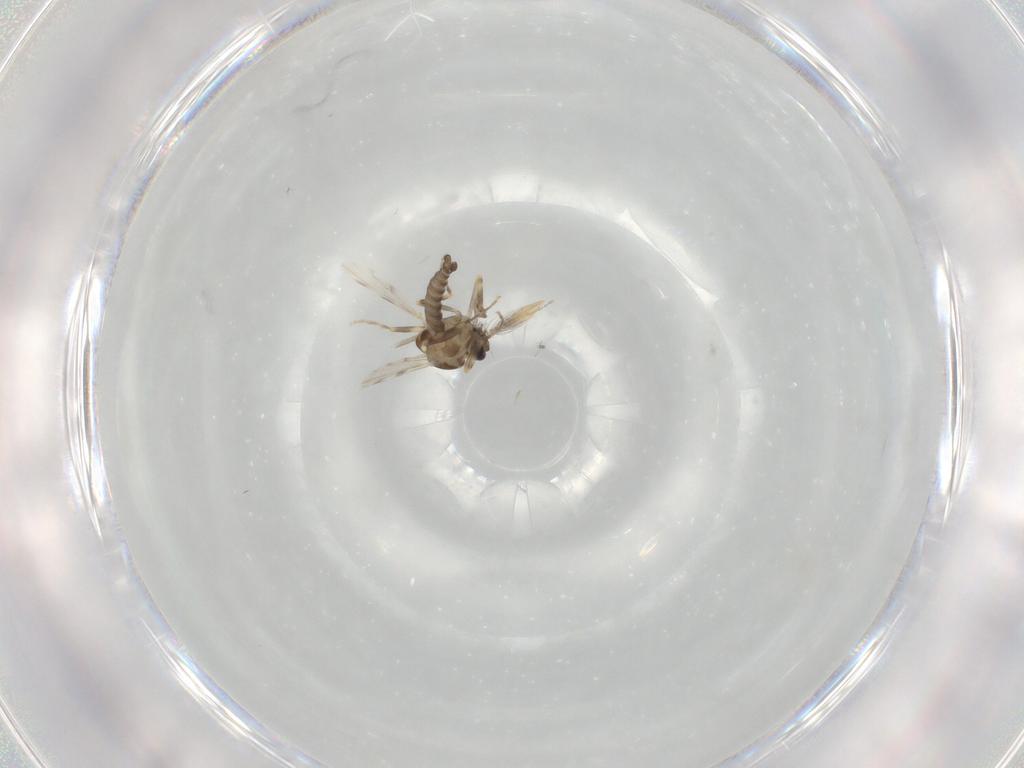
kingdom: Animalia
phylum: Arthropoda
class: Insecta
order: Diptera
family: Ceratopogonidae
